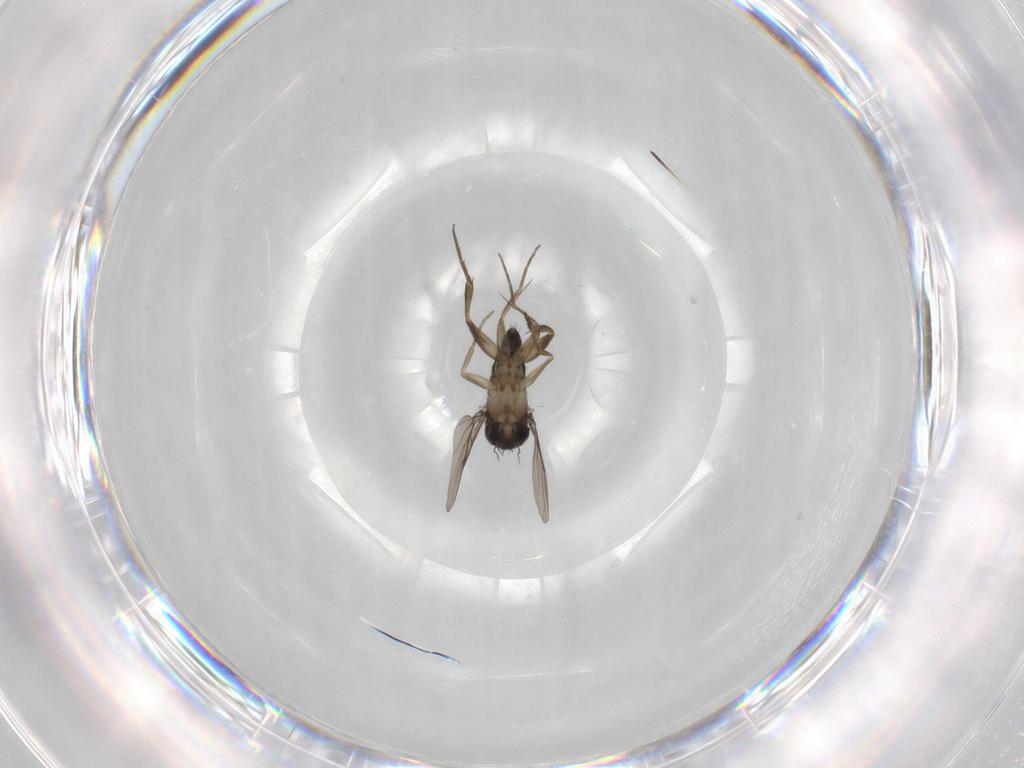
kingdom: Animalia
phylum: Arthropoda
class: Insecta
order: Diptera
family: Phoridae
